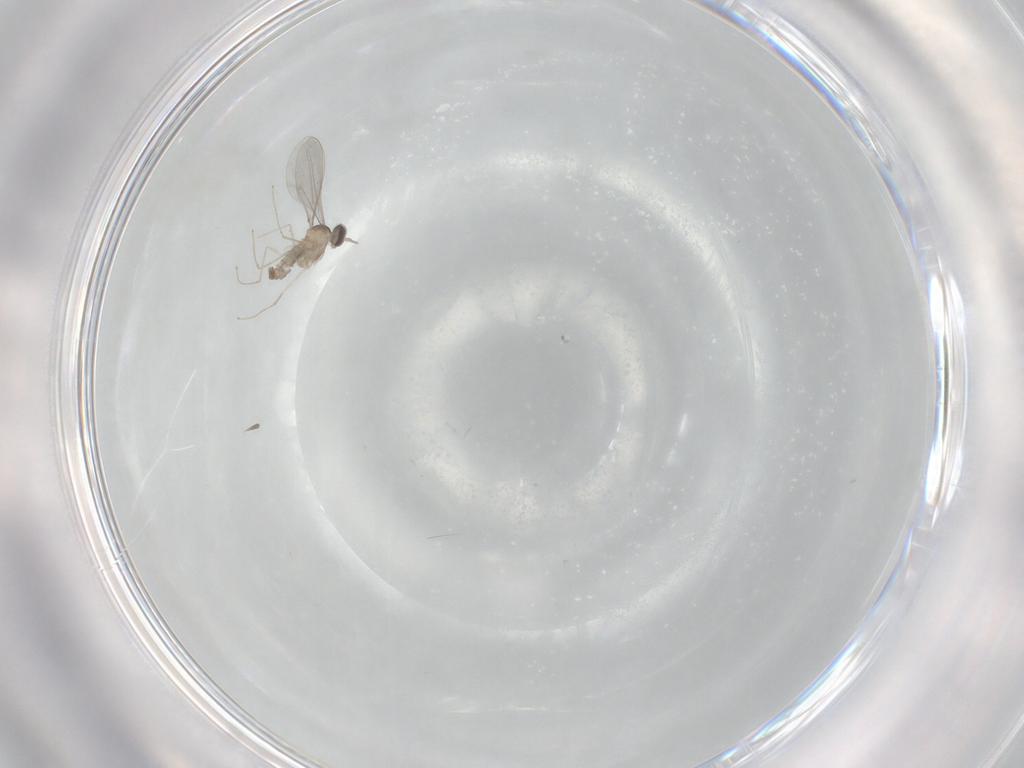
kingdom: Animalia
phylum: Arthropoda
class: Insecta
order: Diptera
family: Cecidomyiidae
